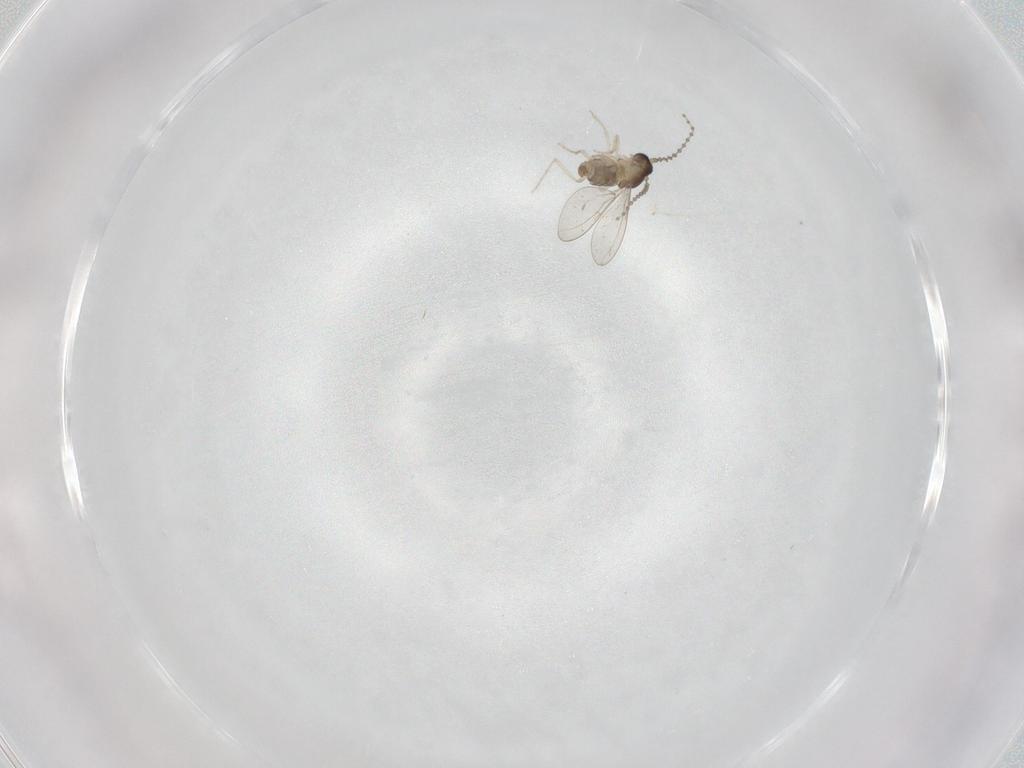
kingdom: Animalia
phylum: Arthropoda
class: Insecta
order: Diptera
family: Cecidomyiidae
